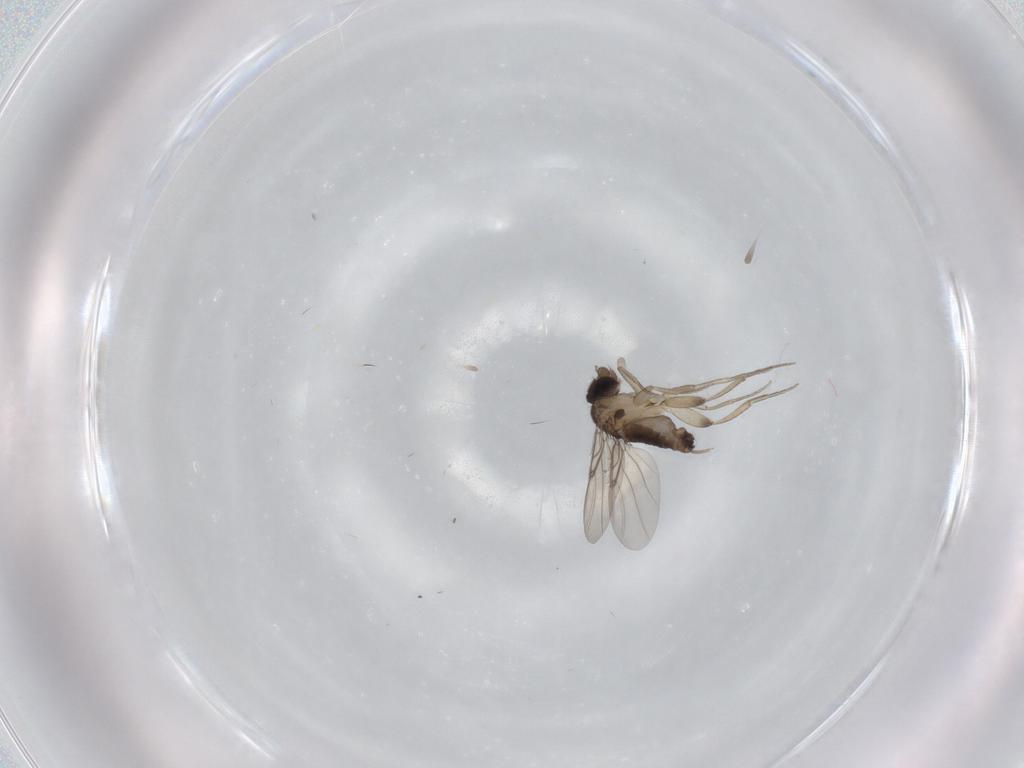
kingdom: Animalia
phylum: Arthropoda
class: Insecta
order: Diptera
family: Phoridae
